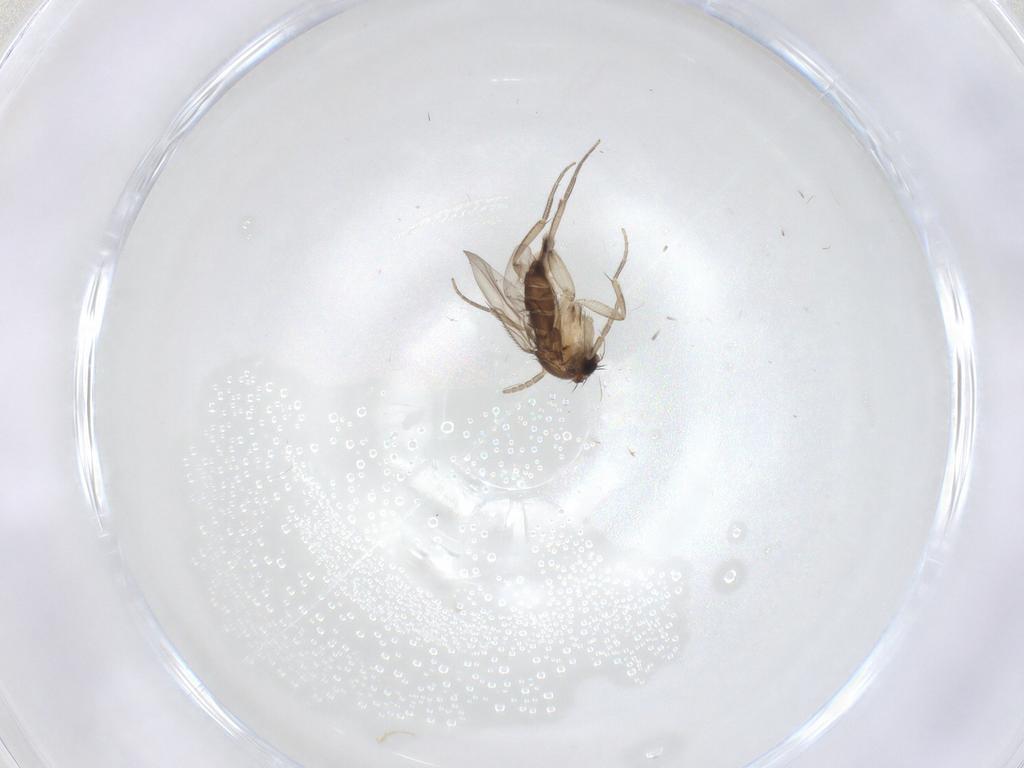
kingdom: Animalia
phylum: Arthropoda
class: Insecta
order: Diptera
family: Phoridae
